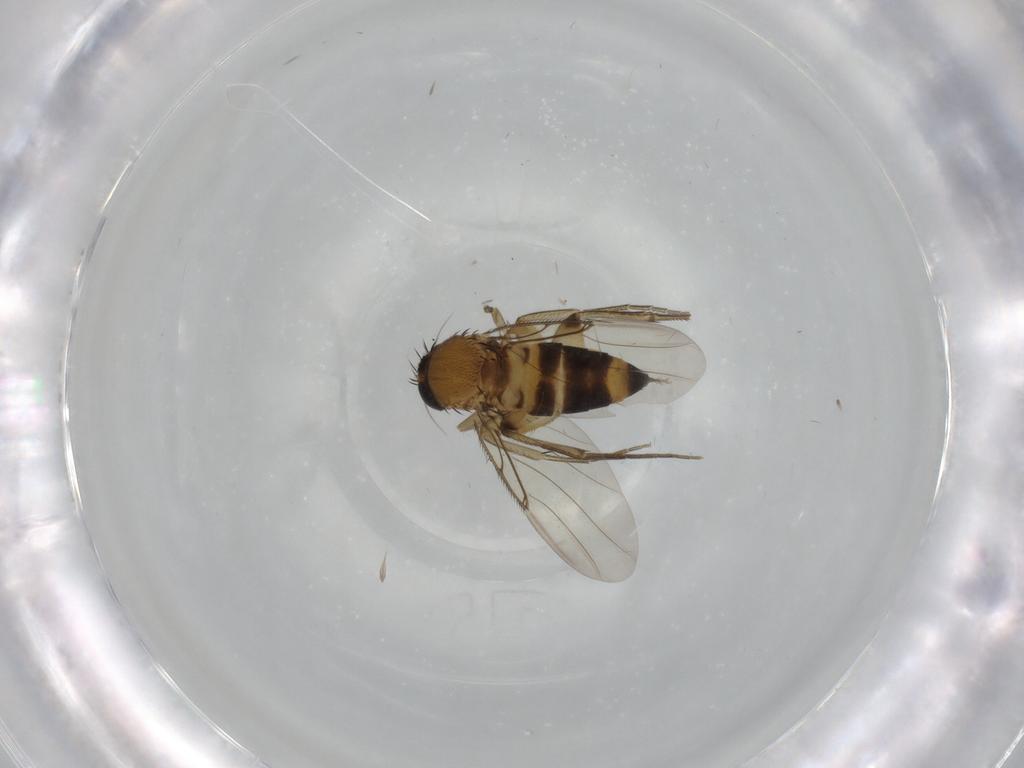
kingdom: Animalia
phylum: Arthropoda
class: Insecta
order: Diptera
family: Phoridae
